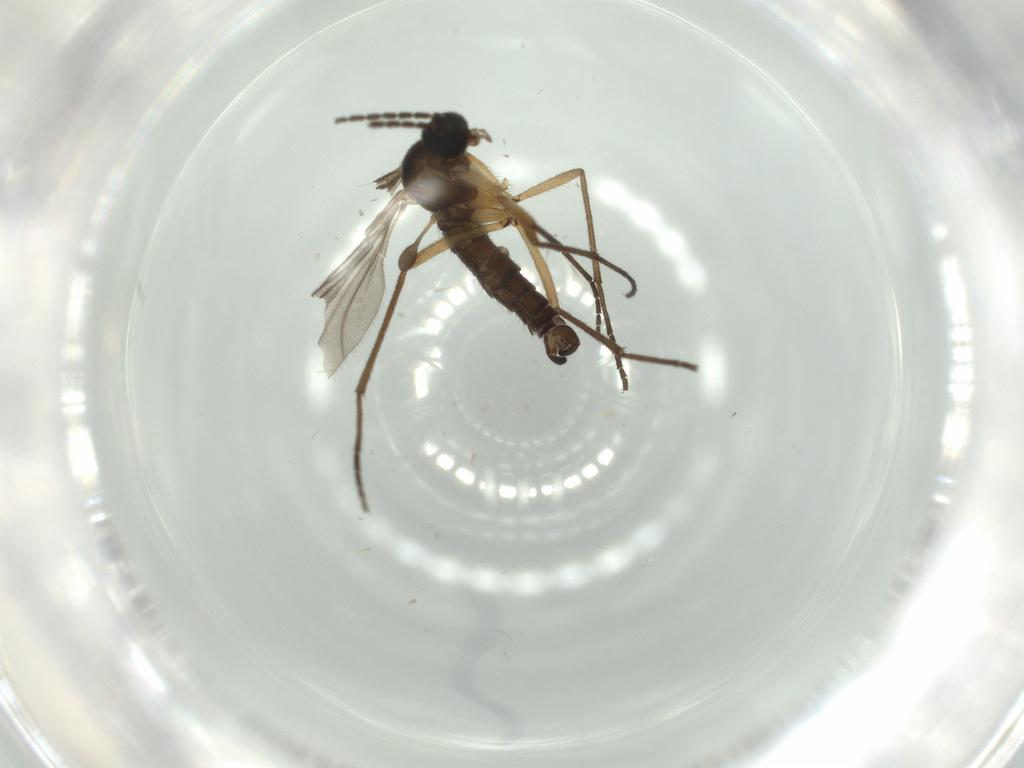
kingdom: Animalia
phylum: Arthropoda
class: Insecta
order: Diptera
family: Sciaridae
